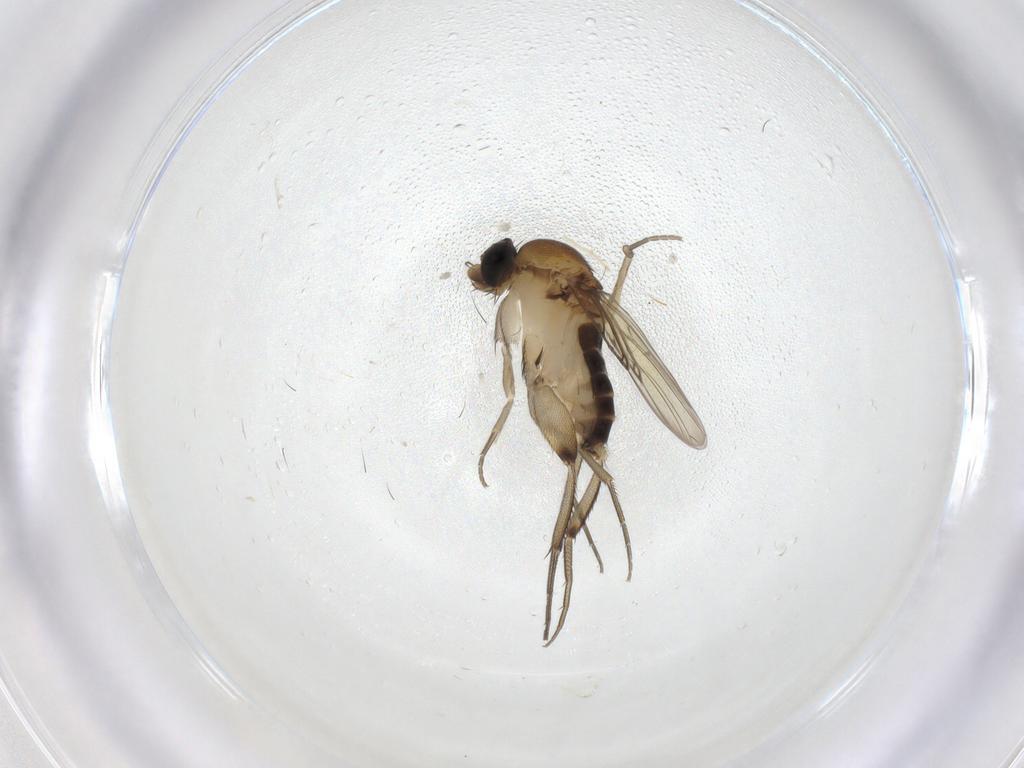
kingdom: Animalia
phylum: Arthropoda
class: Insecta
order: Diptera
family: Phoridae
